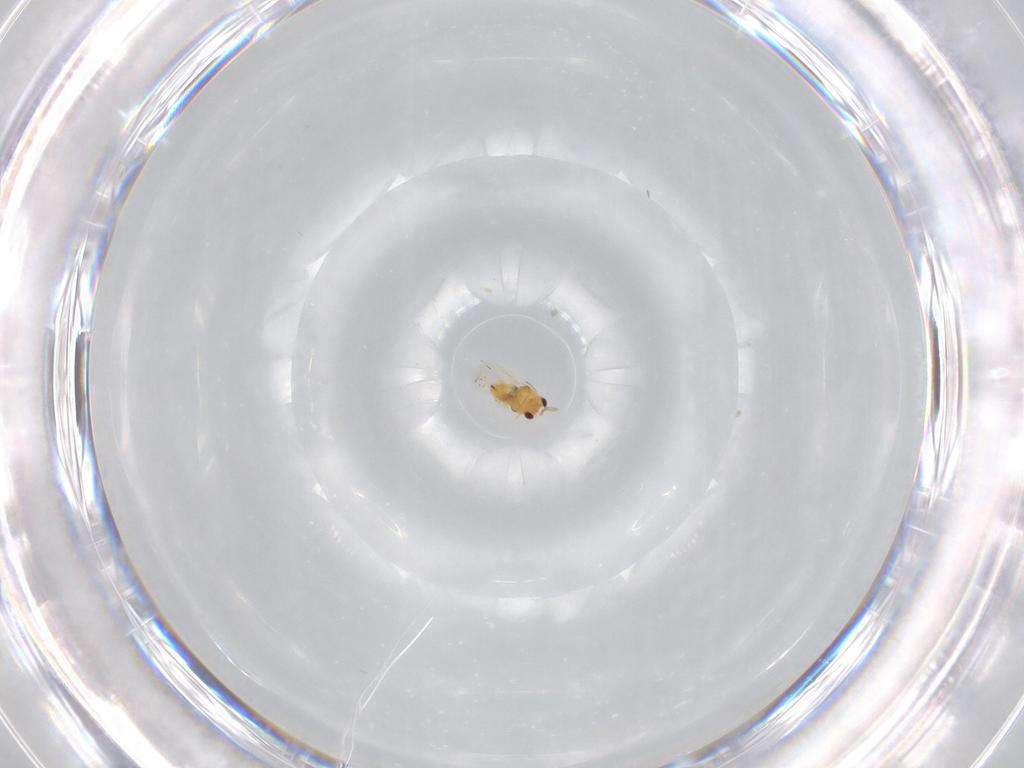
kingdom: Animalia
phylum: Arthropoda
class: Insecta
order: Hymenoptera
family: Aphelinidae
